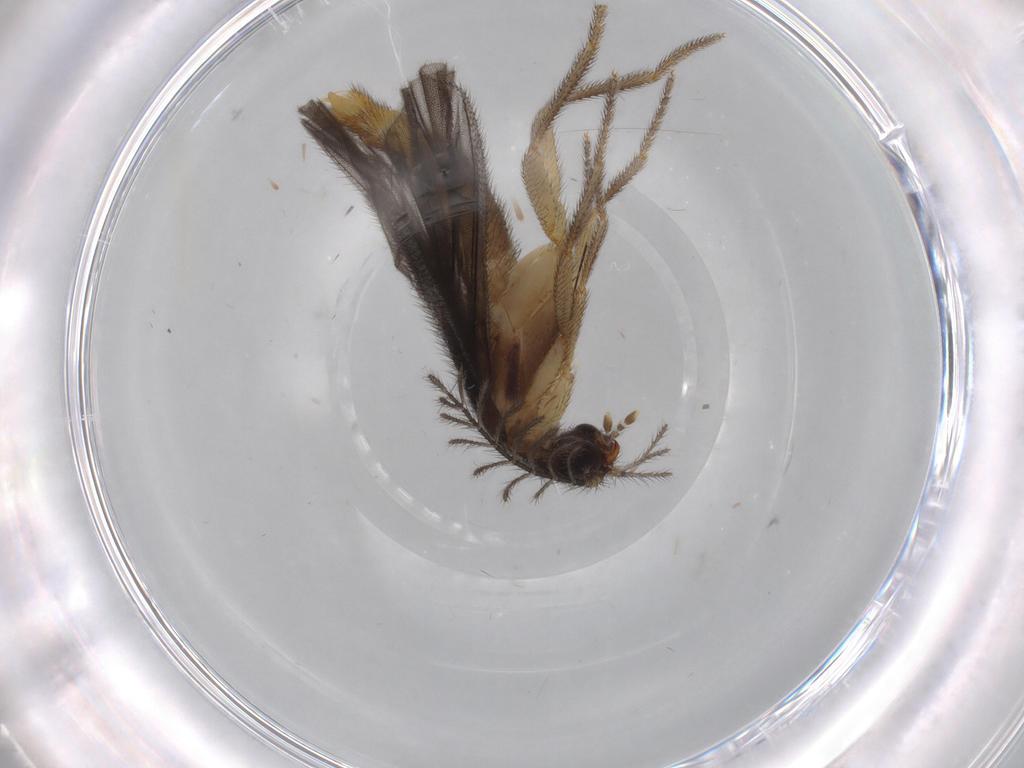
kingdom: Animalia
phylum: Arthropoda
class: Insecta
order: Coleoptera
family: Phengodidae
